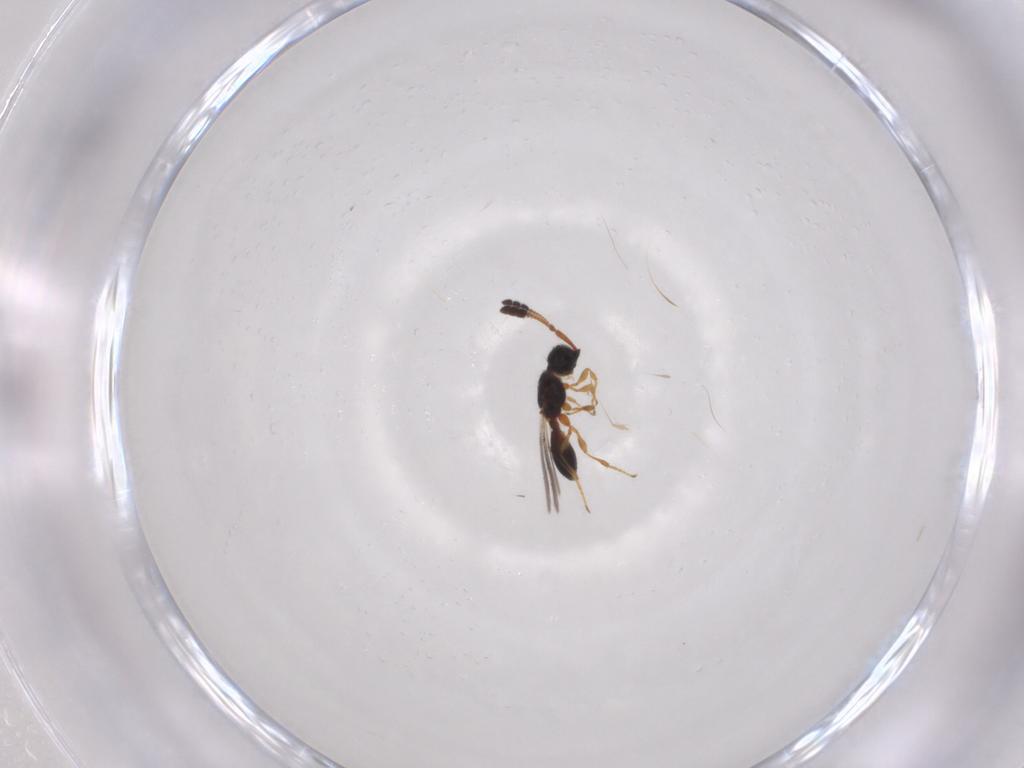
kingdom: Animalia
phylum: Arthropoda
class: Insecta
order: Hymenoptera
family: Diapriidae
